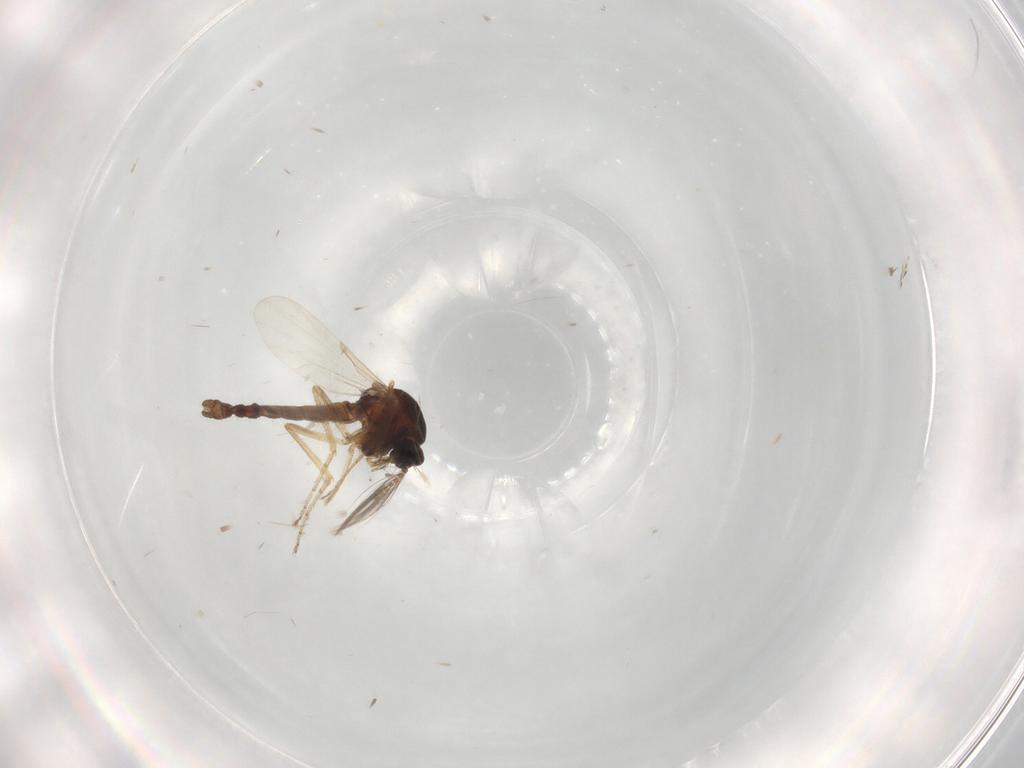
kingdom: Animalia
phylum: Arthropoda
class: Insecta
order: Diptera
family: Ceratopogonidae
